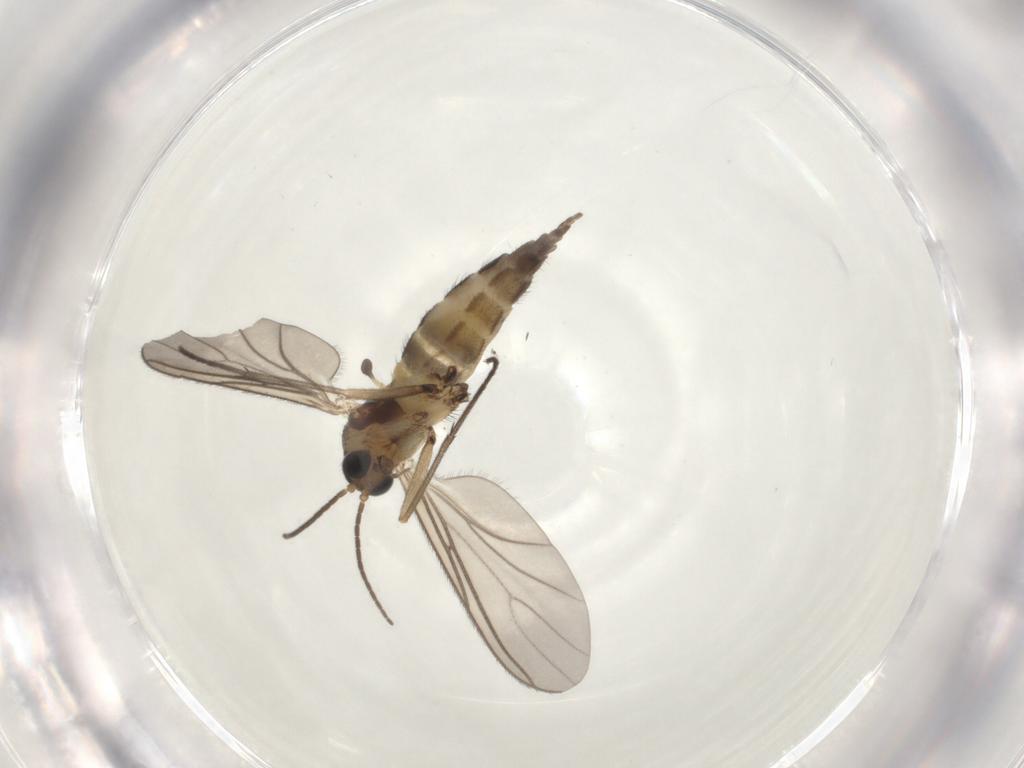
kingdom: Animalia
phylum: Arthropoda
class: Insecta
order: Diptera
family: Sciaridae
